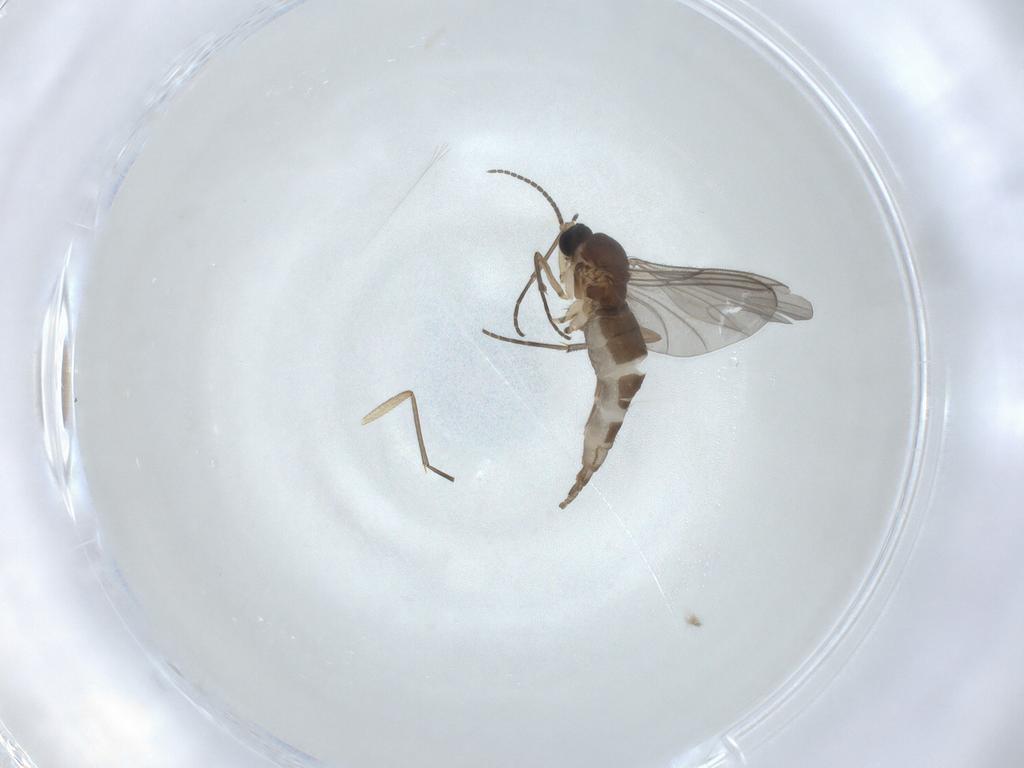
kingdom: Animalia
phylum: Arthropoda
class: Insecta
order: Diptera
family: Sciaridae
